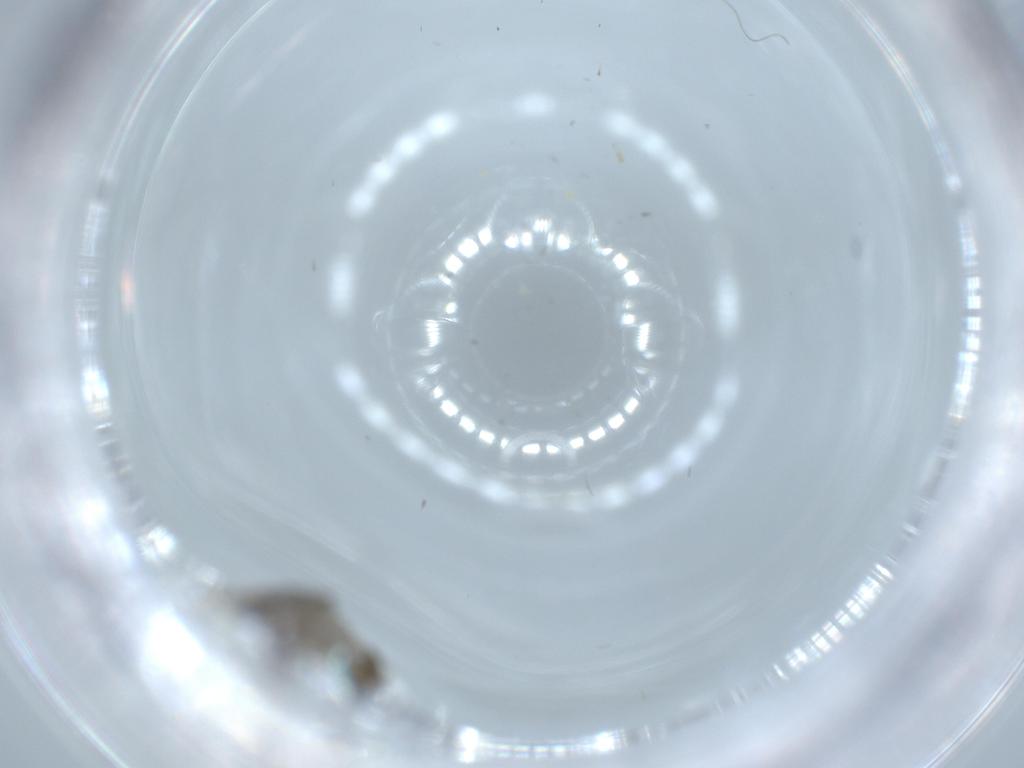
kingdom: Animalia
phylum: Arthropoda
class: Insecta
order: Diptera
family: Phoridae
